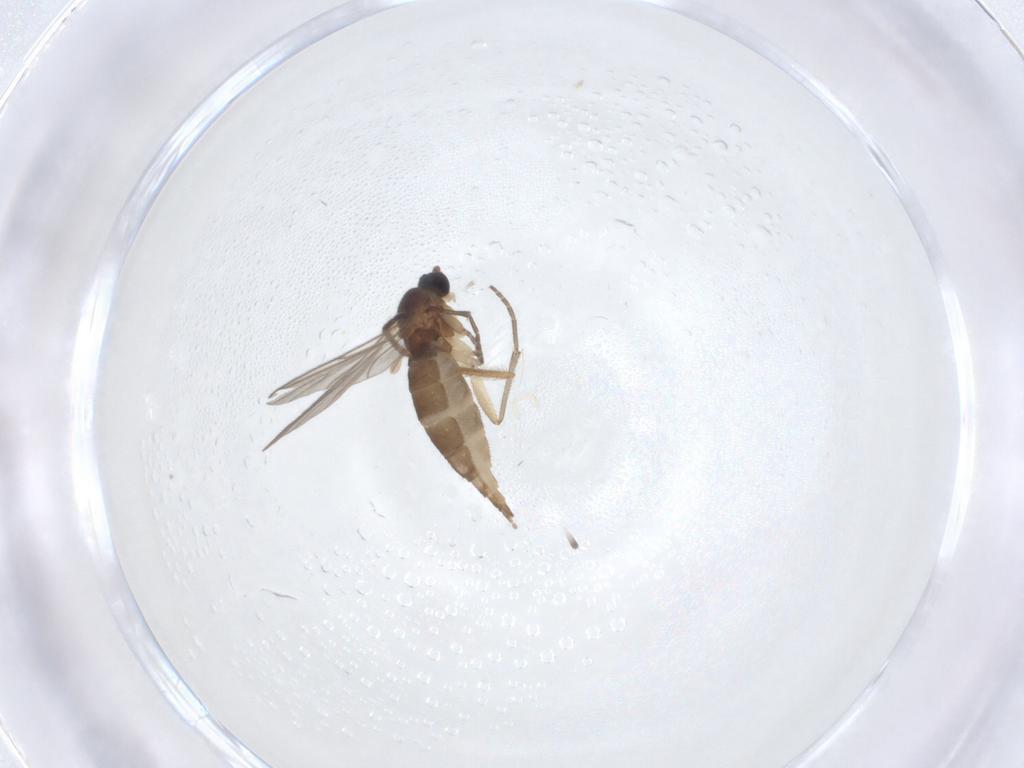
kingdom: Animalia
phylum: Arthropoda
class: Insecta
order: Diptera
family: Sciaridae
